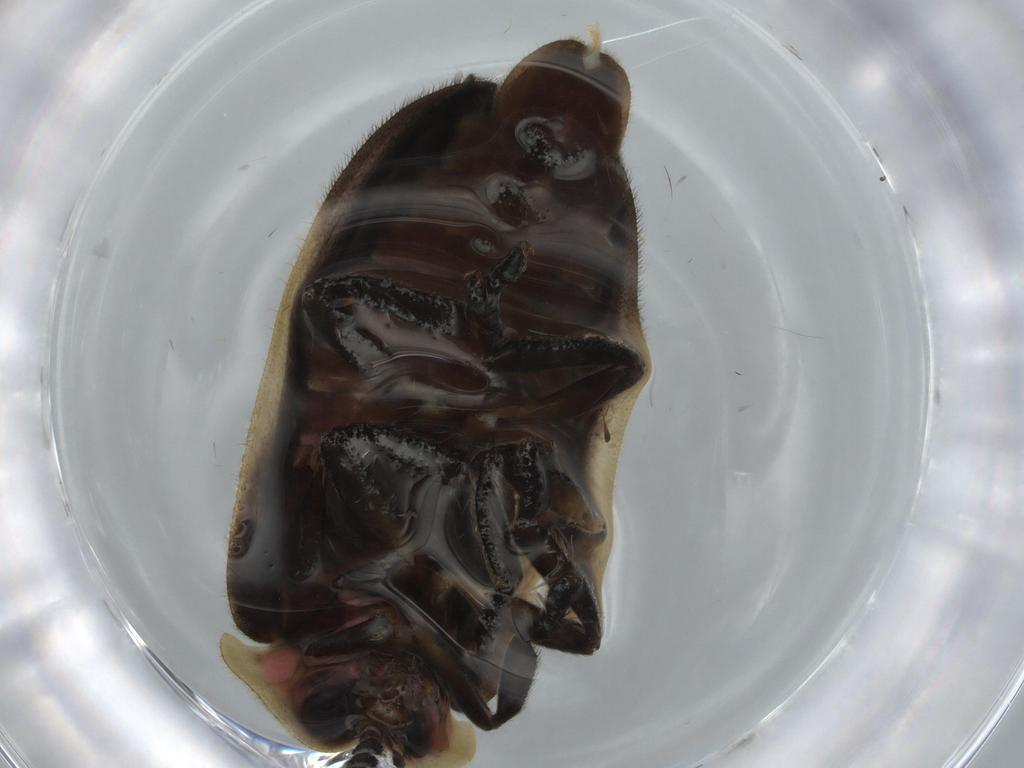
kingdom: Animalia
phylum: Arthropoda
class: Insecta
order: Coleoptera
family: Lampyridae
